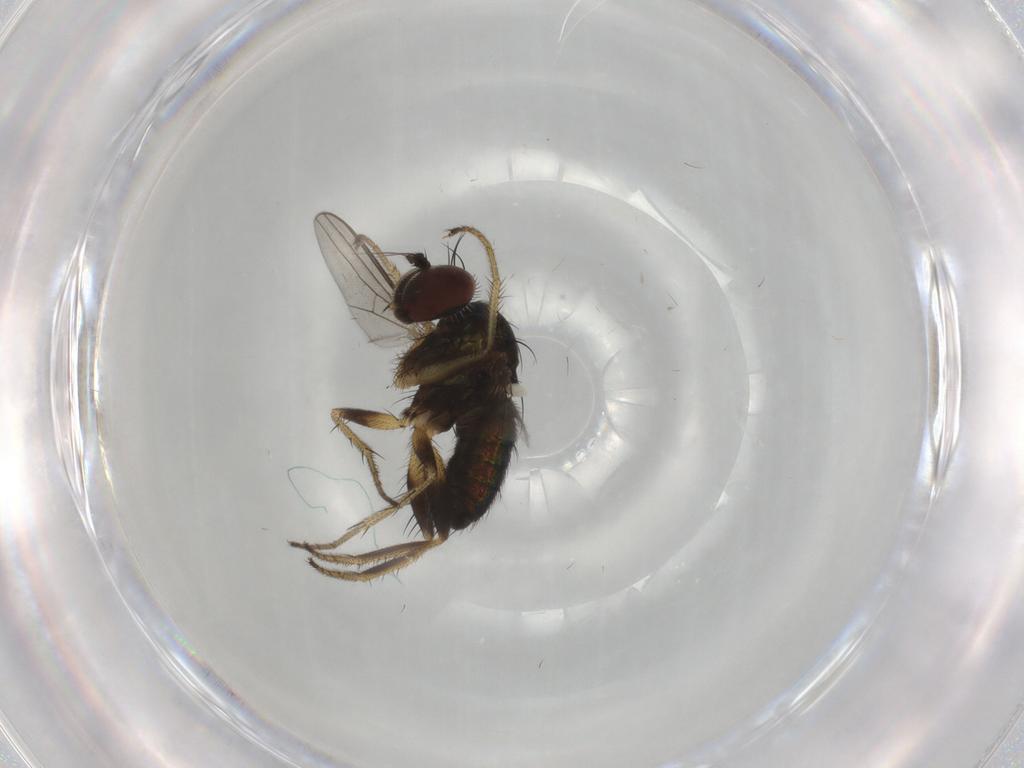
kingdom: Animalia
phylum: Arthropoda
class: Insecta
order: Diptera
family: Dolichopodidae
